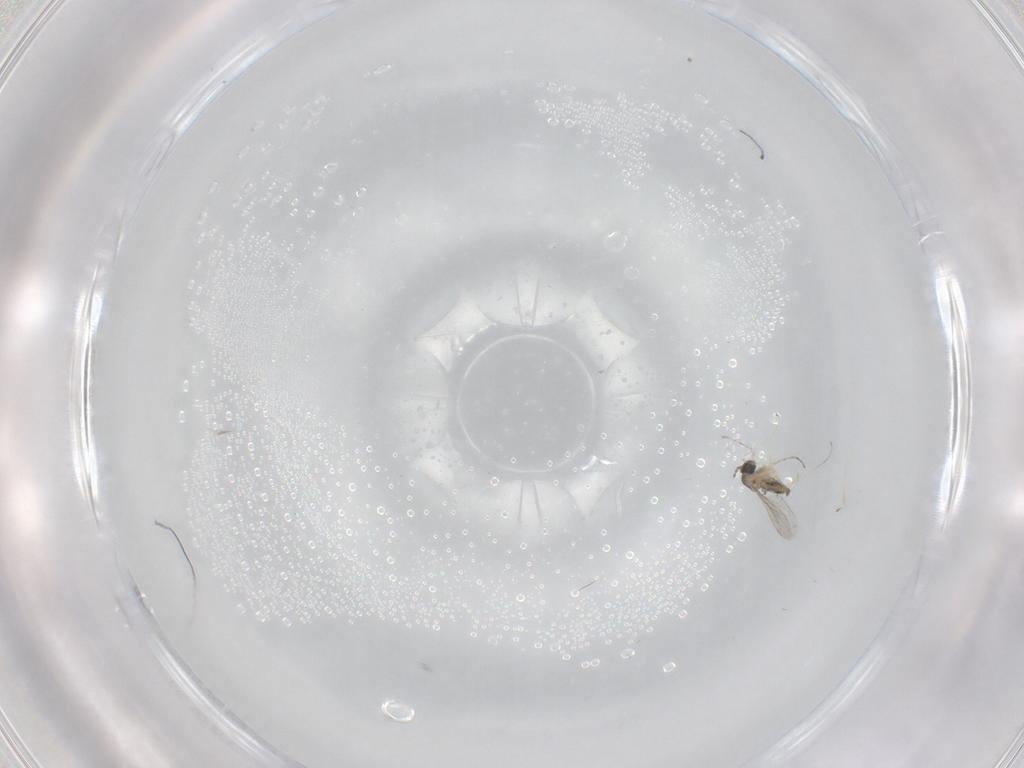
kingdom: Animalia
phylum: Arthropoda
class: Insecta
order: Diptera
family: Cecidomyiidae
